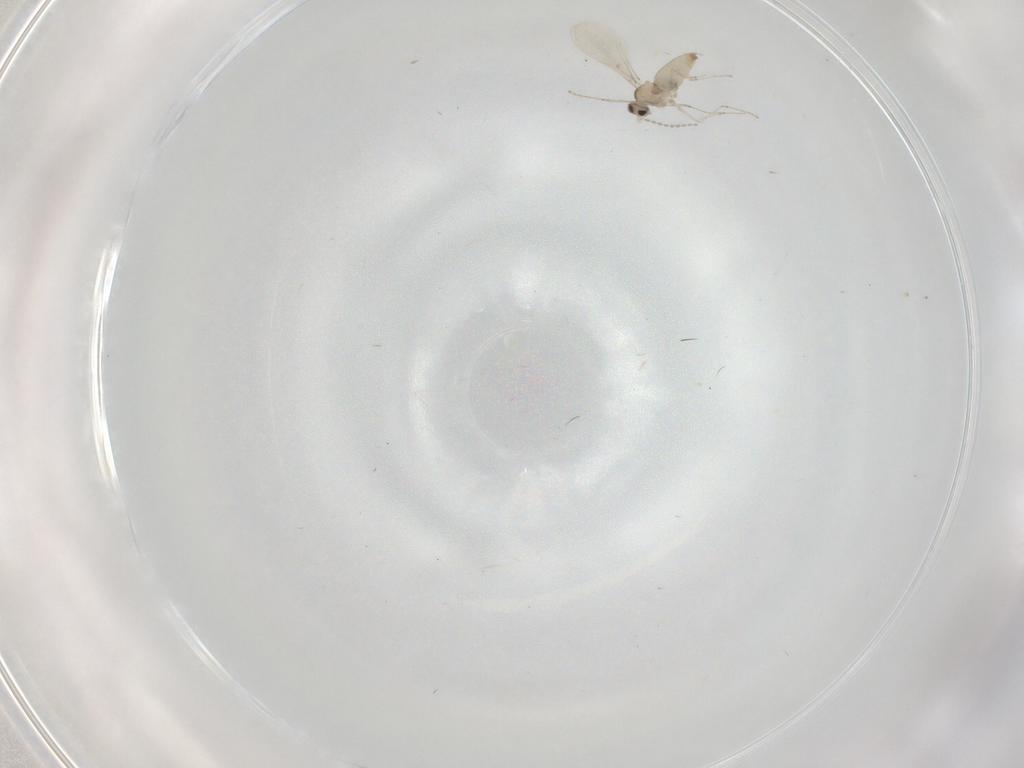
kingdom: Animalia
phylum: Arthropoda
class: Insecta
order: Diptera
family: Cecidomyiidae
